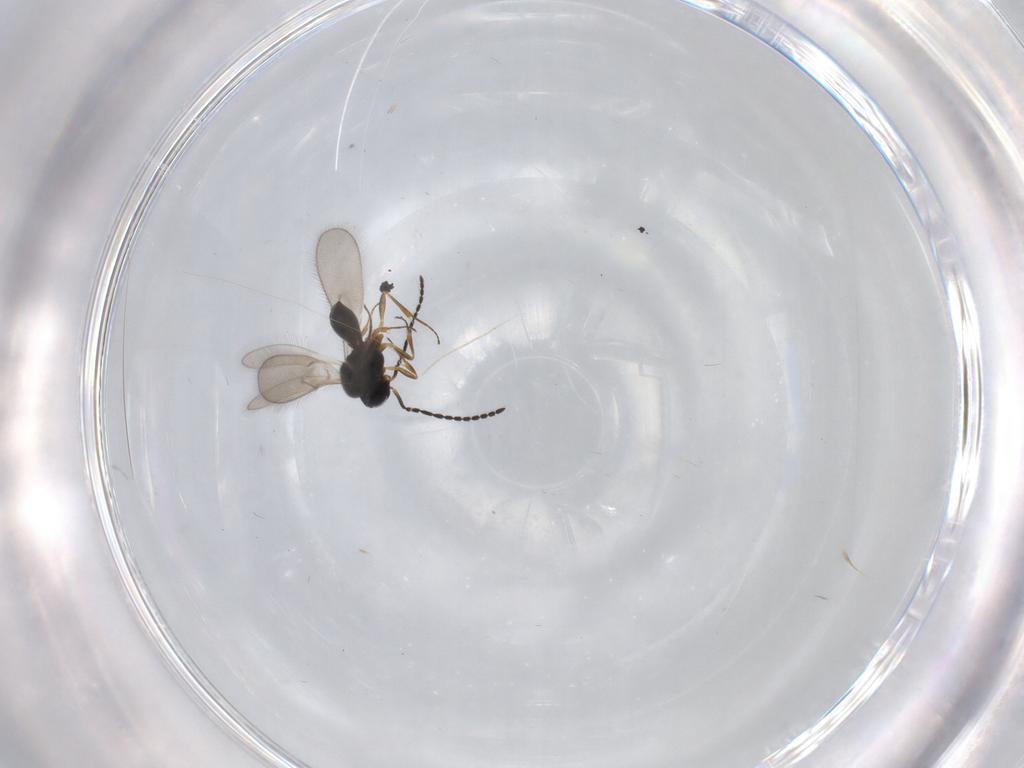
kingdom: Animalia
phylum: Arthropoda
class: Insecta
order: Hymenoptera
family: Scelionidae
